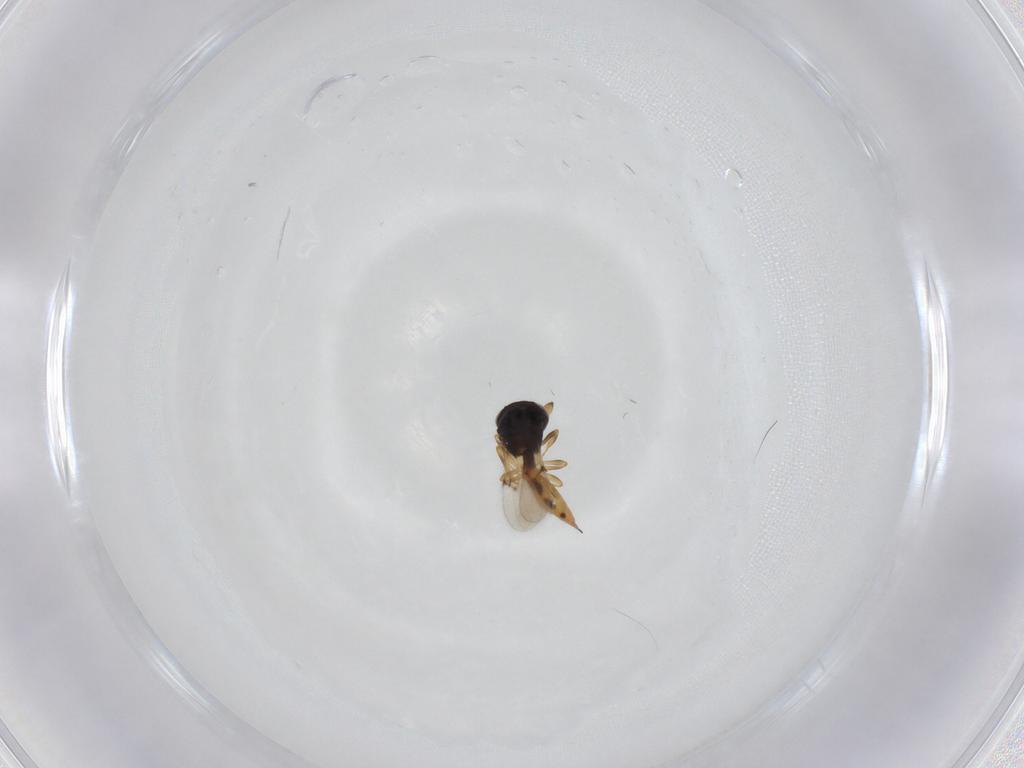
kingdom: Animalia
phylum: Arthropoda
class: Insecta
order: Hymenoptera
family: Scelionidae
